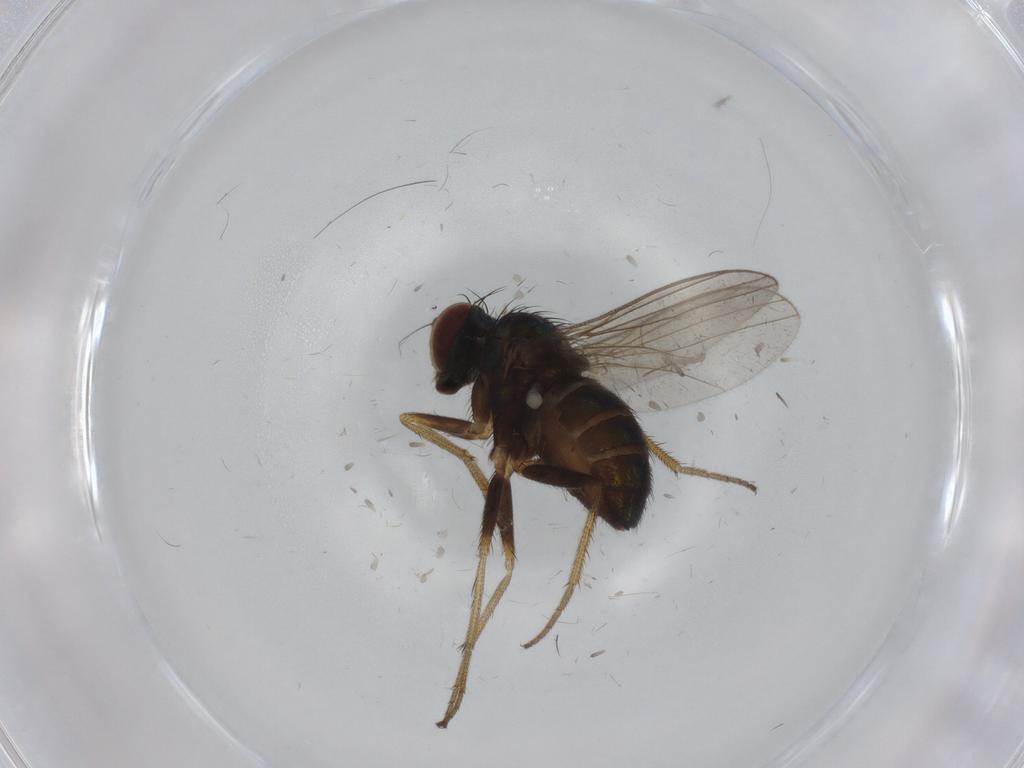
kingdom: Animalia
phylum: Arthropoda
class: Insecta
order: Diptera
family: Dolichopodidae
